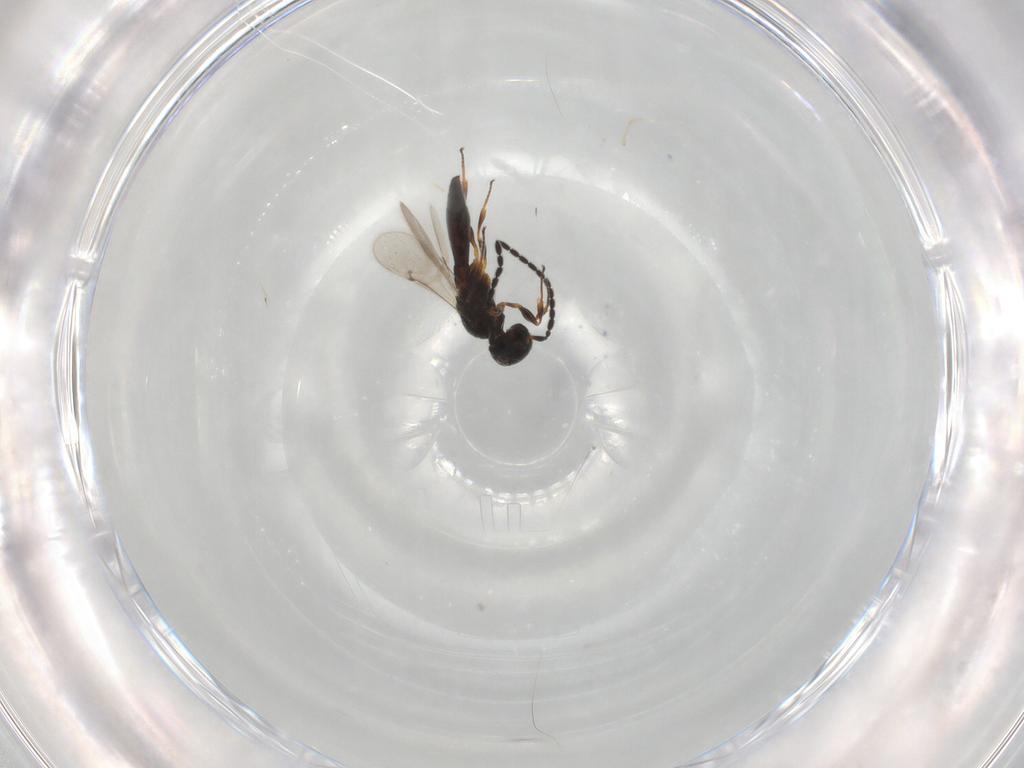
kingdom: Animalia
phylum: Arthropoda
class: Insecta
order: Hymenoptera
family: Scelionidae
